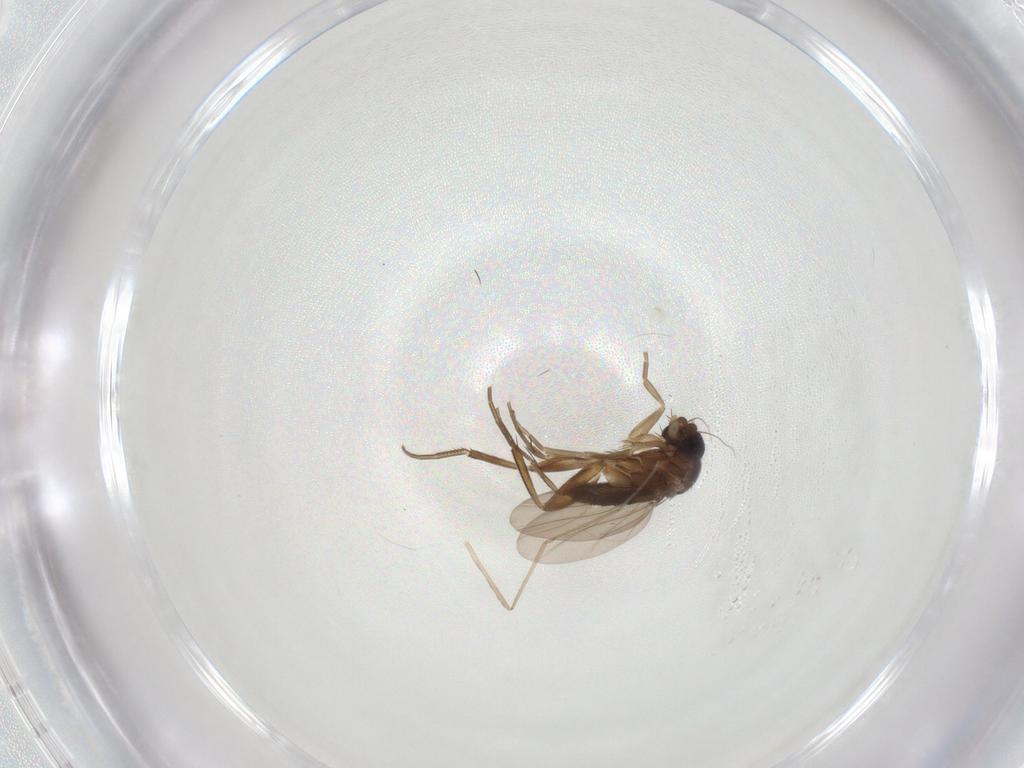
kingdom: Animalia
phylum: Arthropoda
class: Insecta
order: Diptera
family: Phoridae
